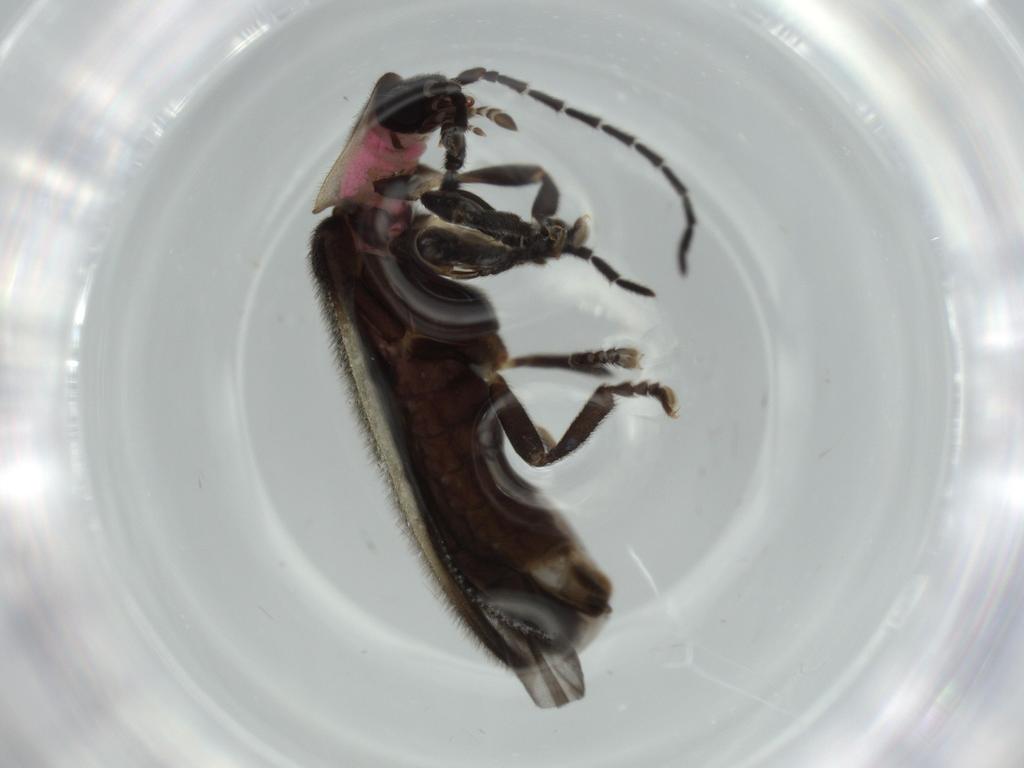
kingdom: Animalia
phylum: Arthropoda
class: Insecta
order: Coleoptera
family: Lampyridae
